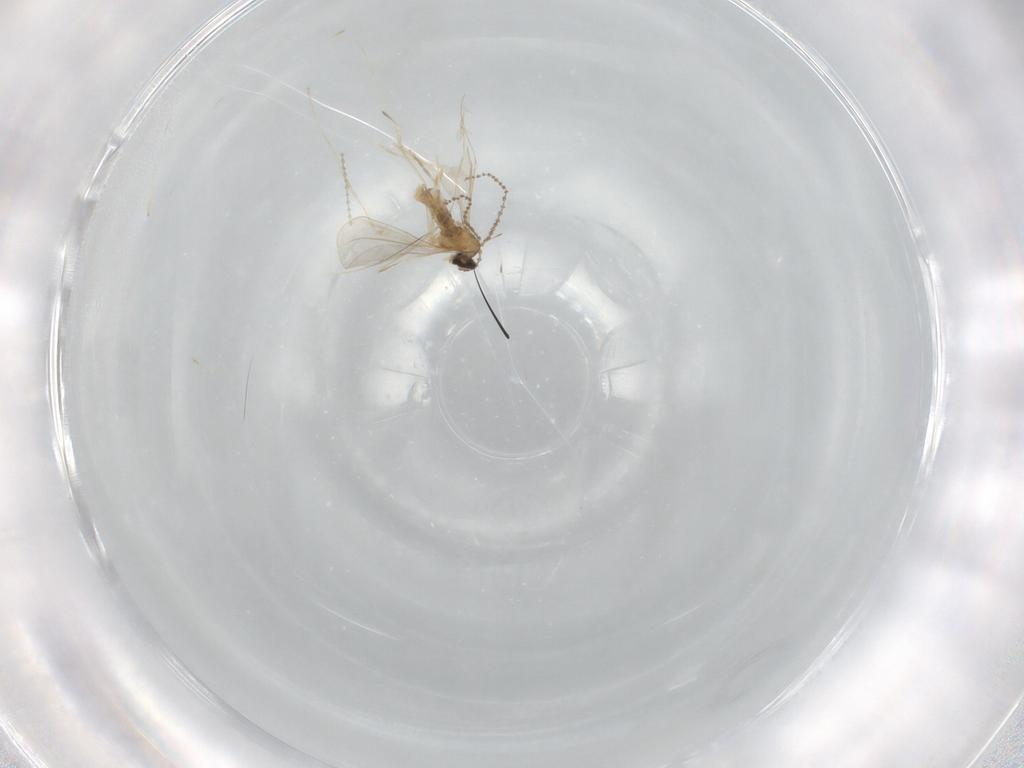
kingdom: Animalia
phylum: Arthropoda
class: Insecta
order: Diptera
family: Cecidomyiidae
